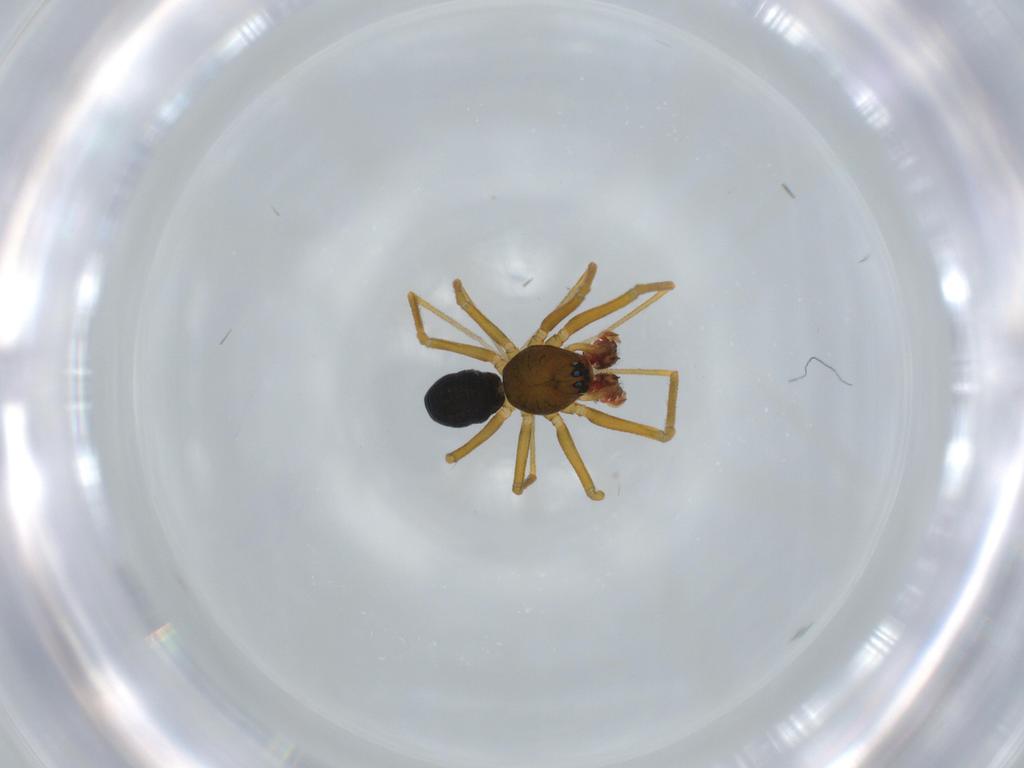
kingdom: Animalia
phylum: Arthropoda
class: Arachnida
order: Araneae
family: Linyphiidae
